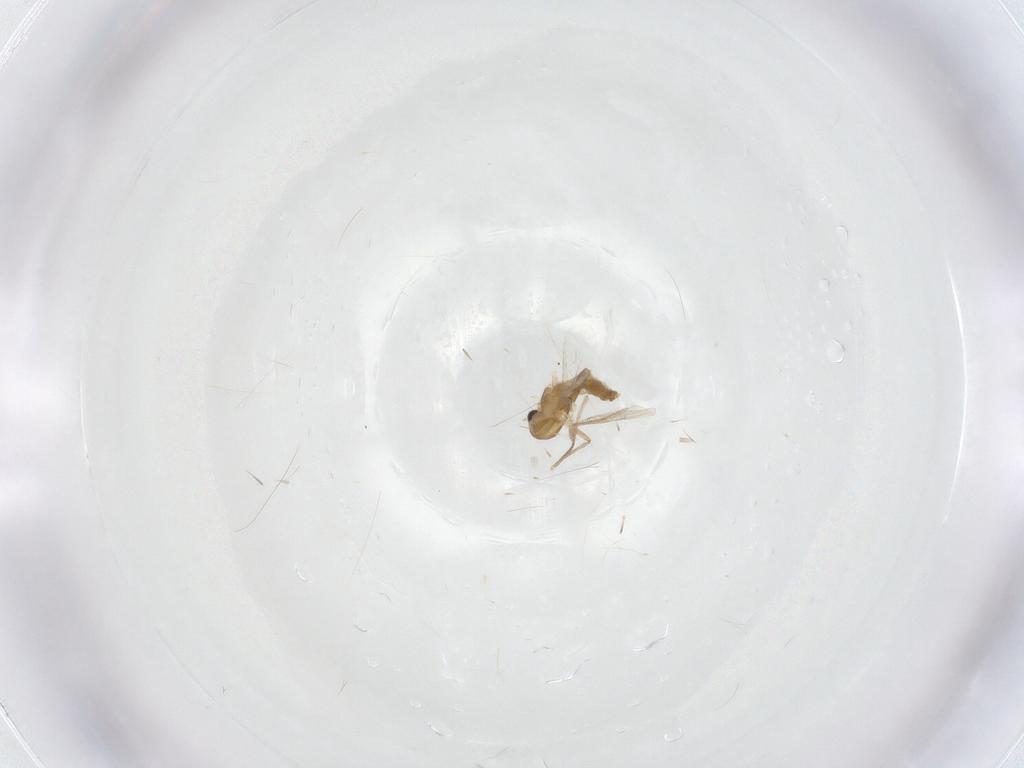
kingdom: Animalia
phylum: Arthropoda
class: Insecta
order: Diptera
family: Chironomidae
